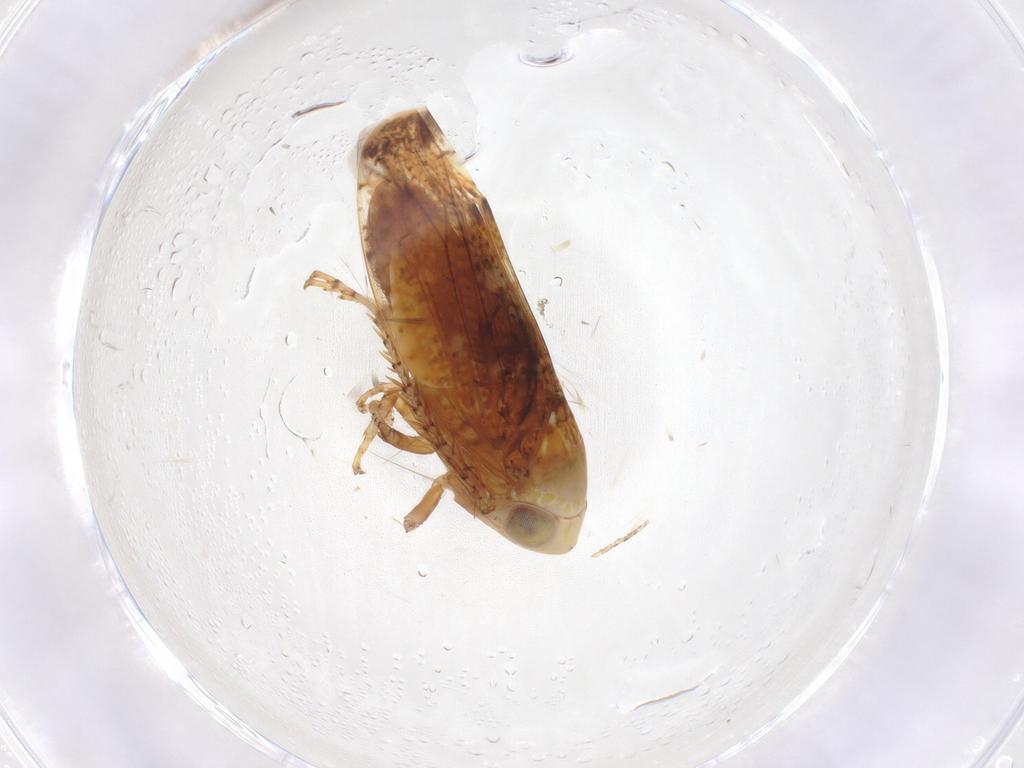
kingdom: Animalia
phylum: Arthropoda
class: Insecta
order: Hemiptera
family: Cicadellidae
